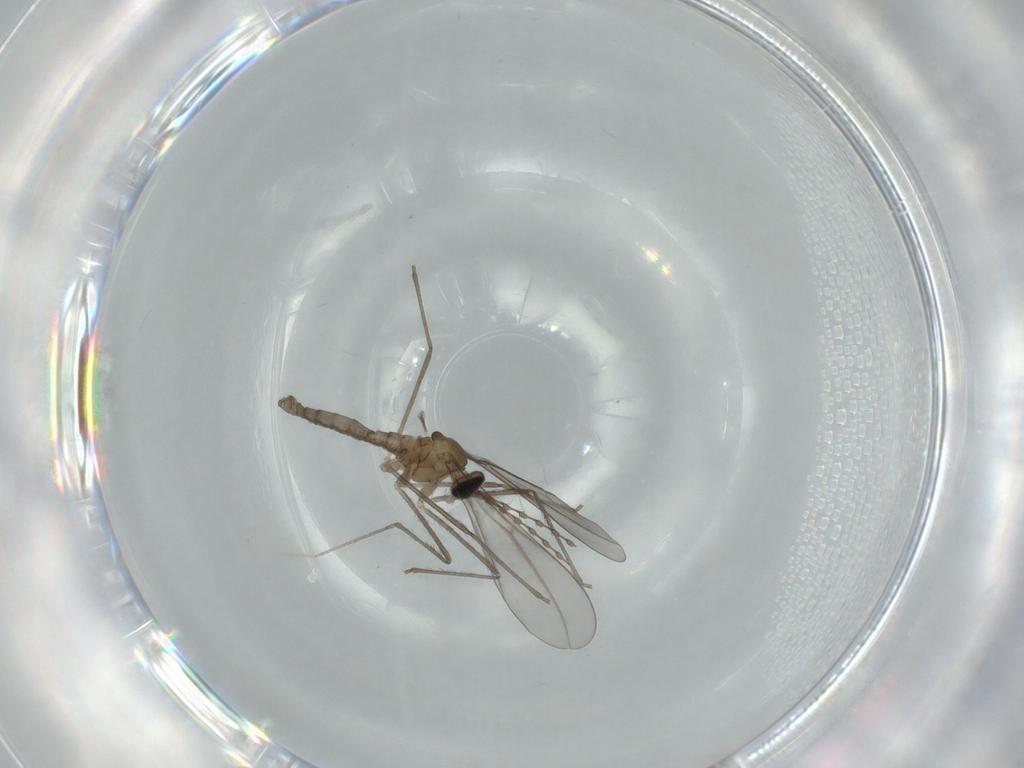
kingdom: Animalia
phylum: Arthropoda
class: Insecta
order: Diptera
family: Cecidomyiidae
